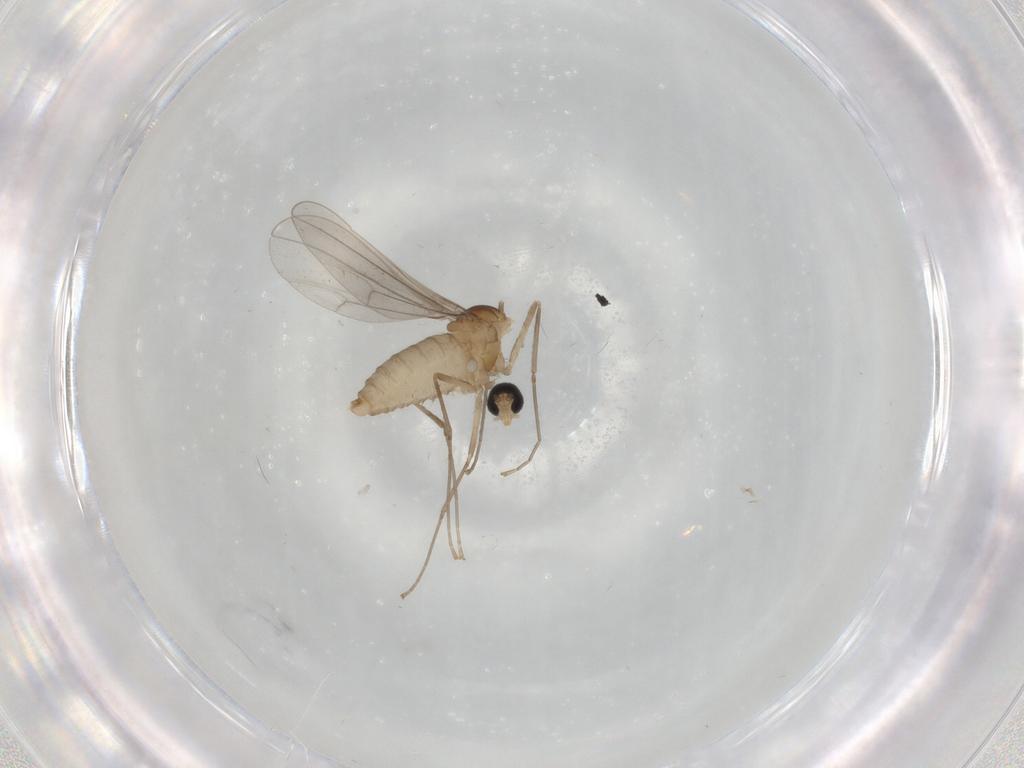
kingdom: Animalia
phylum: Arthropoda
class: Insecta
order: Diptera
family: Cecidomyiidae
